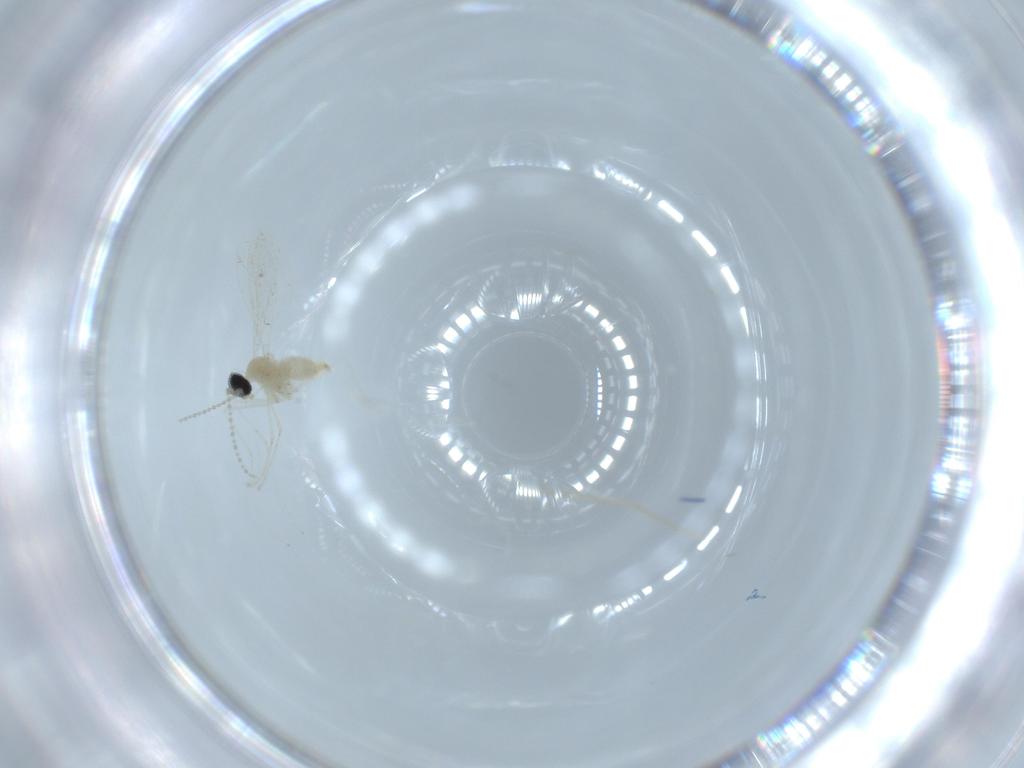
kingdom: Animalia
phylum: Arthropoda
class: Insecta
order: Diptera
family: Cecidomyiidae
